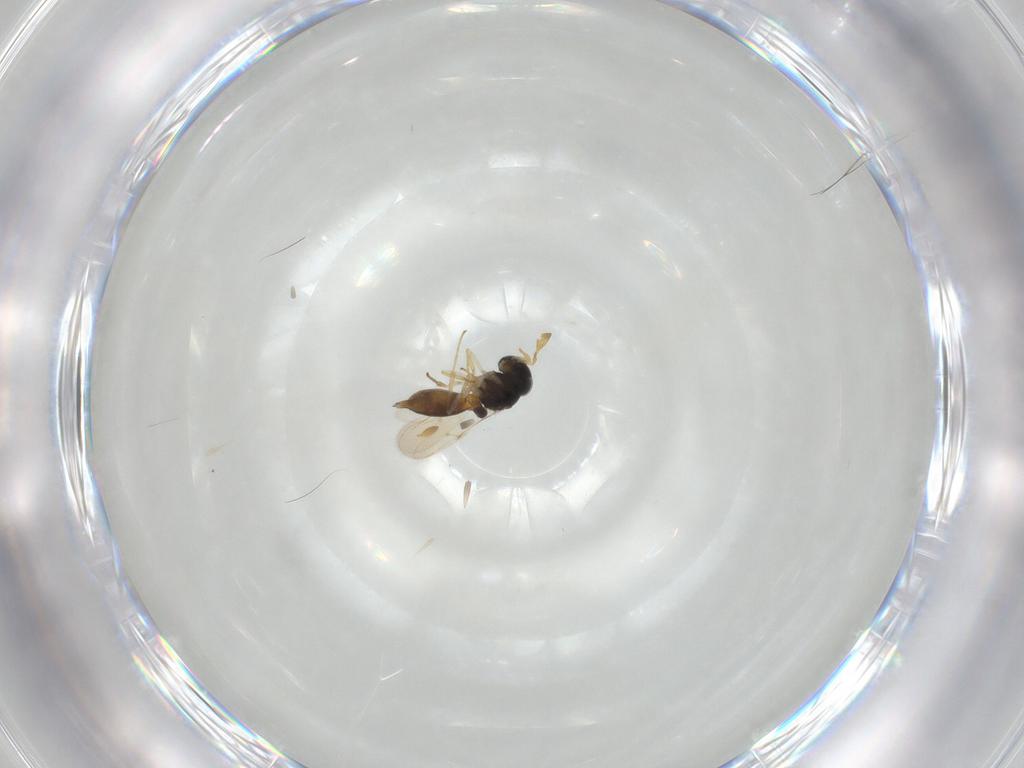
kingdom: Animalia
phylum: Arthropoda
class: Insecta
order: Hymenoptera
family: Scelionidae
